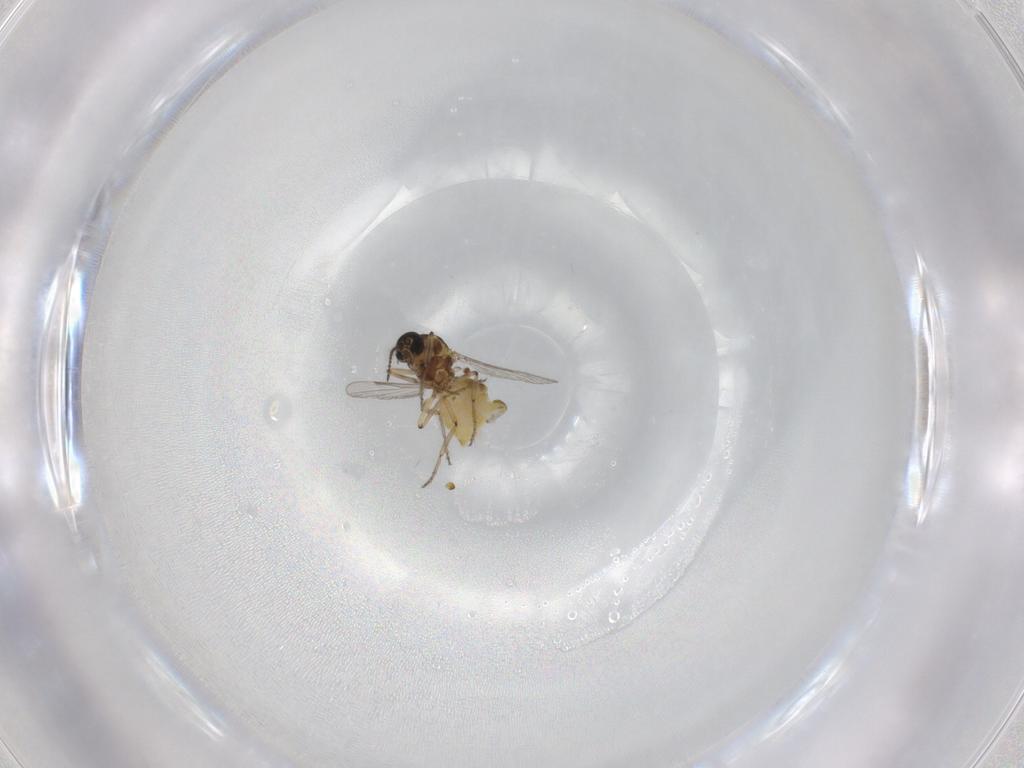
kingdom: Animalia
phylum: Arthropoda
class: Insecta
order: Diptera
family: Ceratopogonidae
